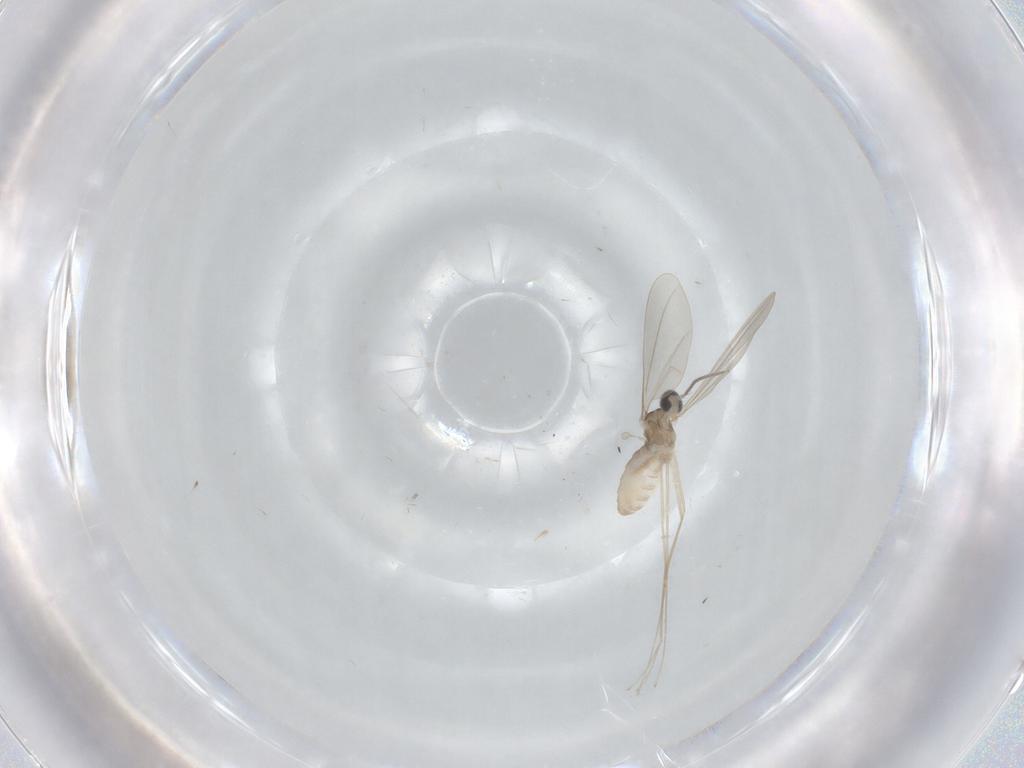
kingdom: Animalia
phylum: Arthropoda
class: Insecta
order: Diptera
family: Cecidomyiidae
